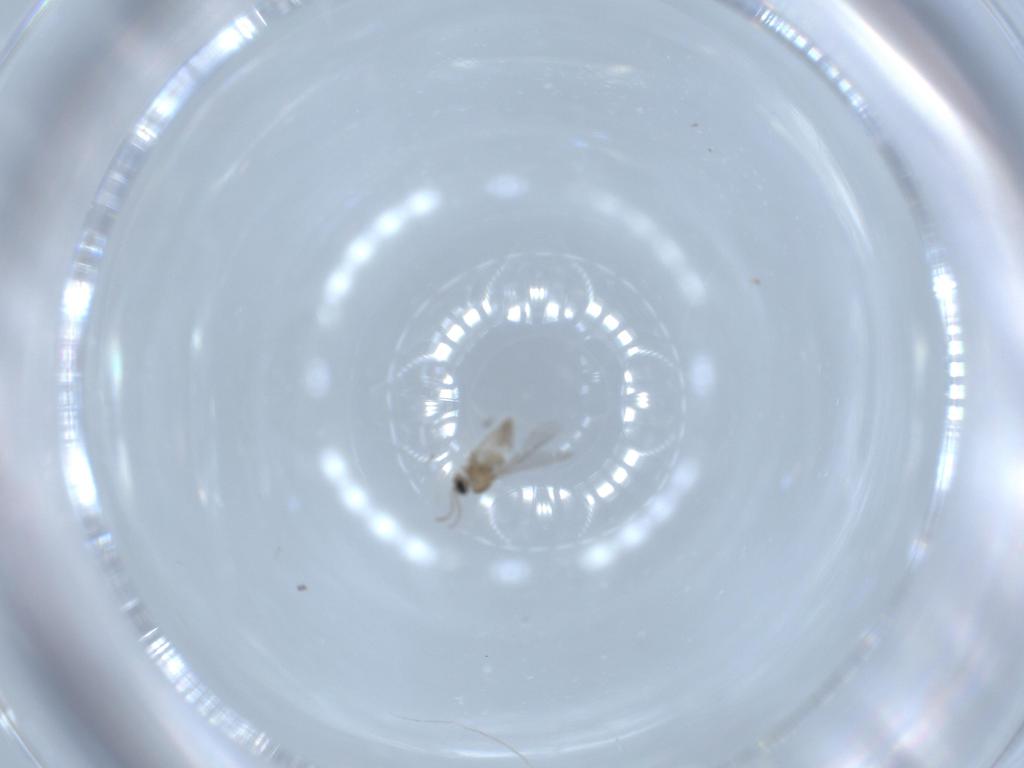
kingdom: Animalia
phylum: Arthropoda
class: Insecta
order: Diptera
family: Cecidomyiidae
